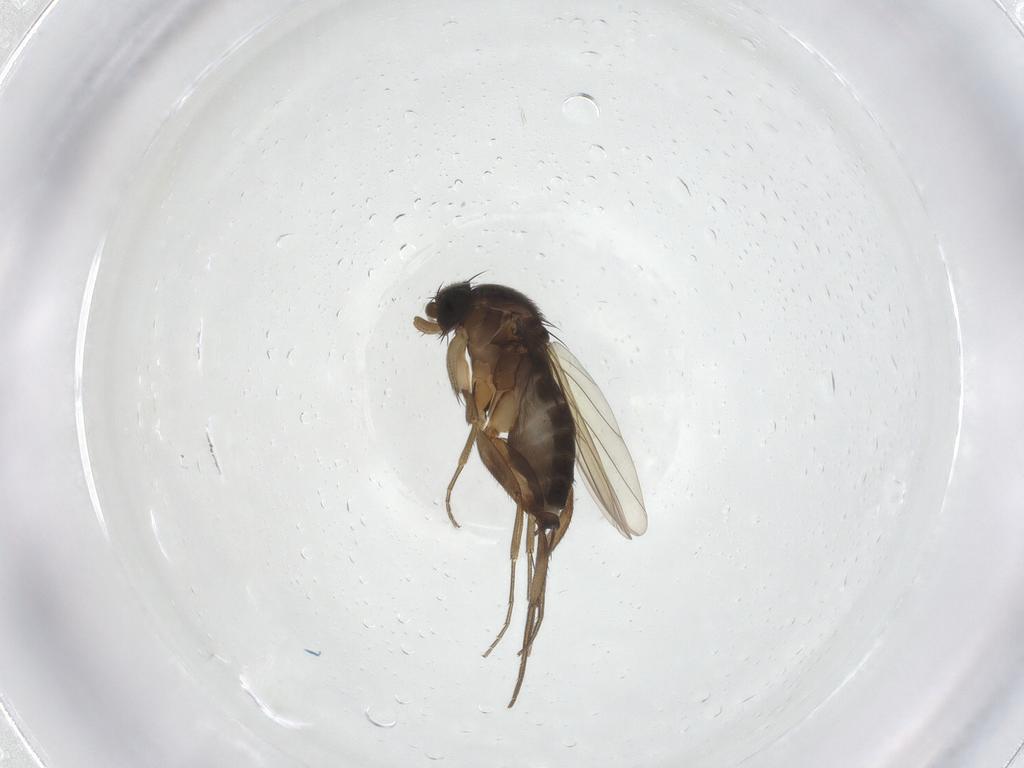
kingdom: Animalia
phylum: Arthropoda
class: Insecta
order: Diptera
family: Phoridae
